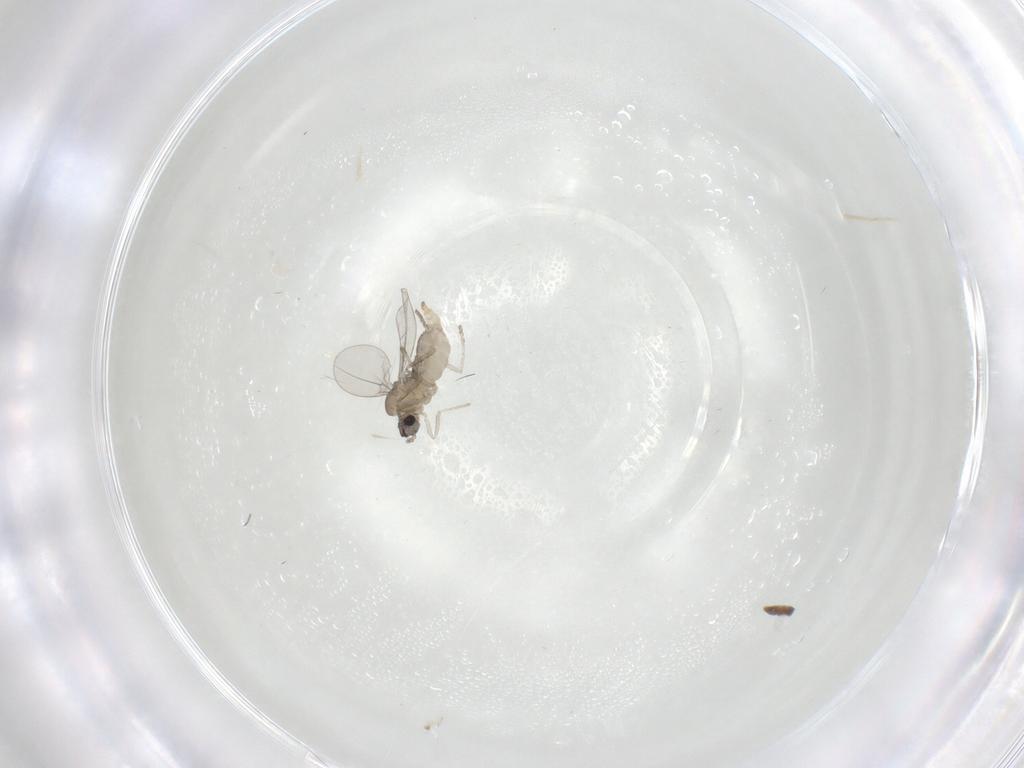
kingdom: Animalia
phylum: Arthropoda
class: Insecta
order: Diptera
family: Cecidomyiidae
